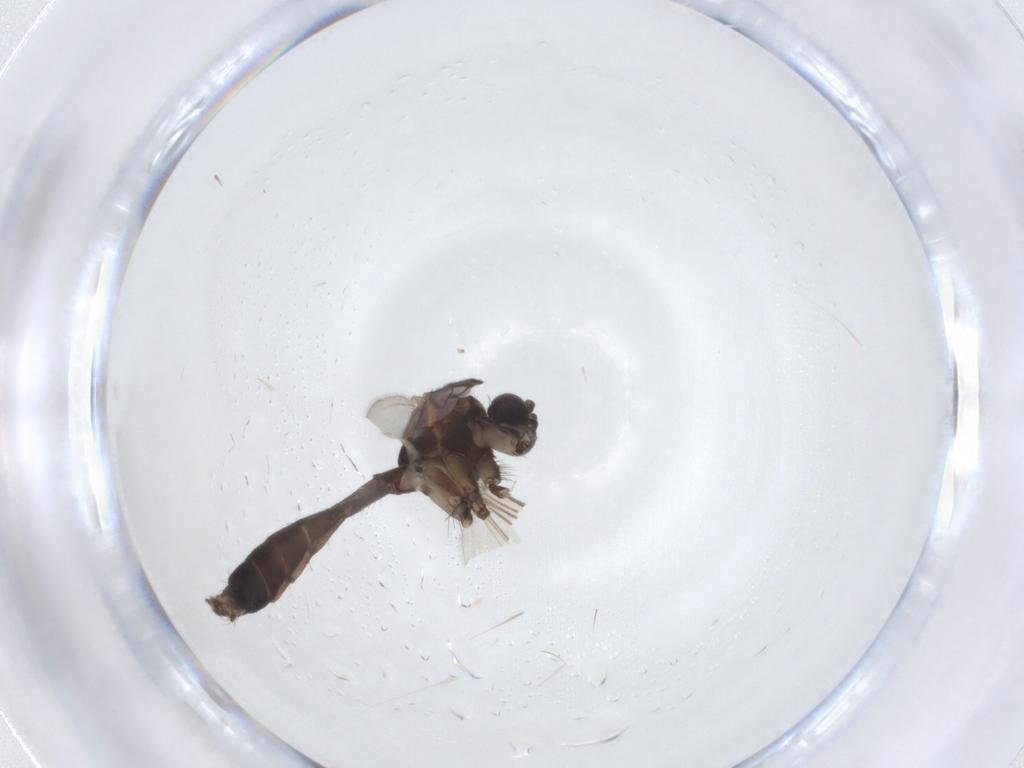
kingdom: Animalia
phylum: Arthropoda
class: Insecta
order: Diptera
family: Mycetophilidae
